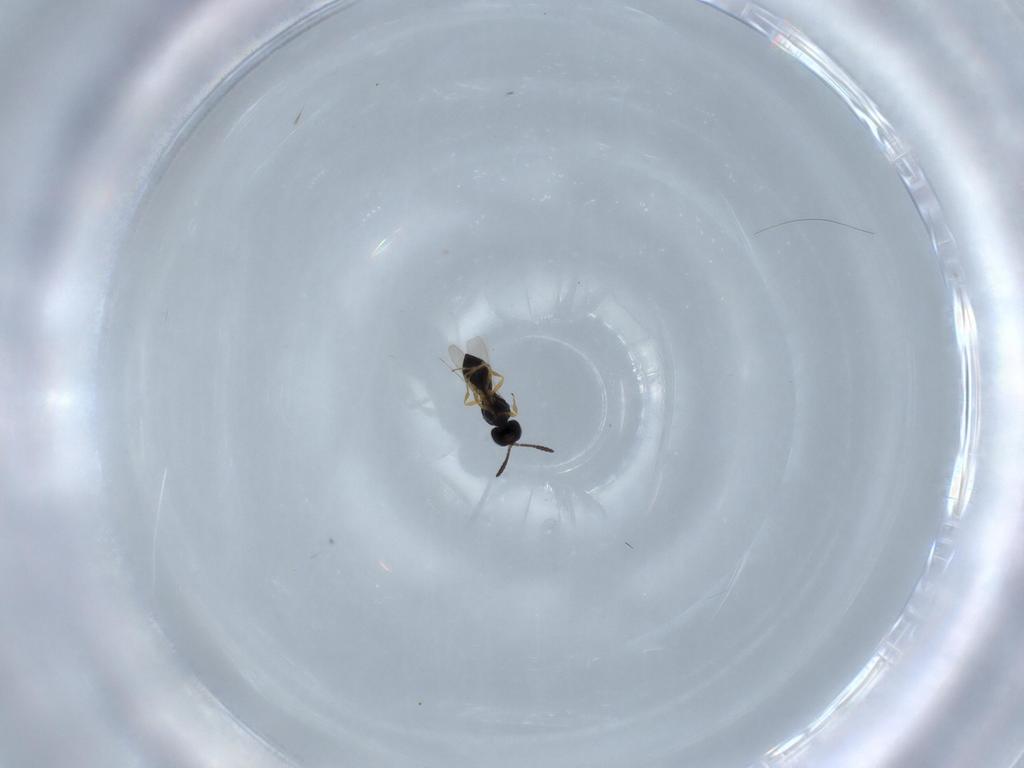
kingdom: Animalia
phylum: Arthropoda
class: Insecta
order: Hymenoptera
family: Scelionidae
